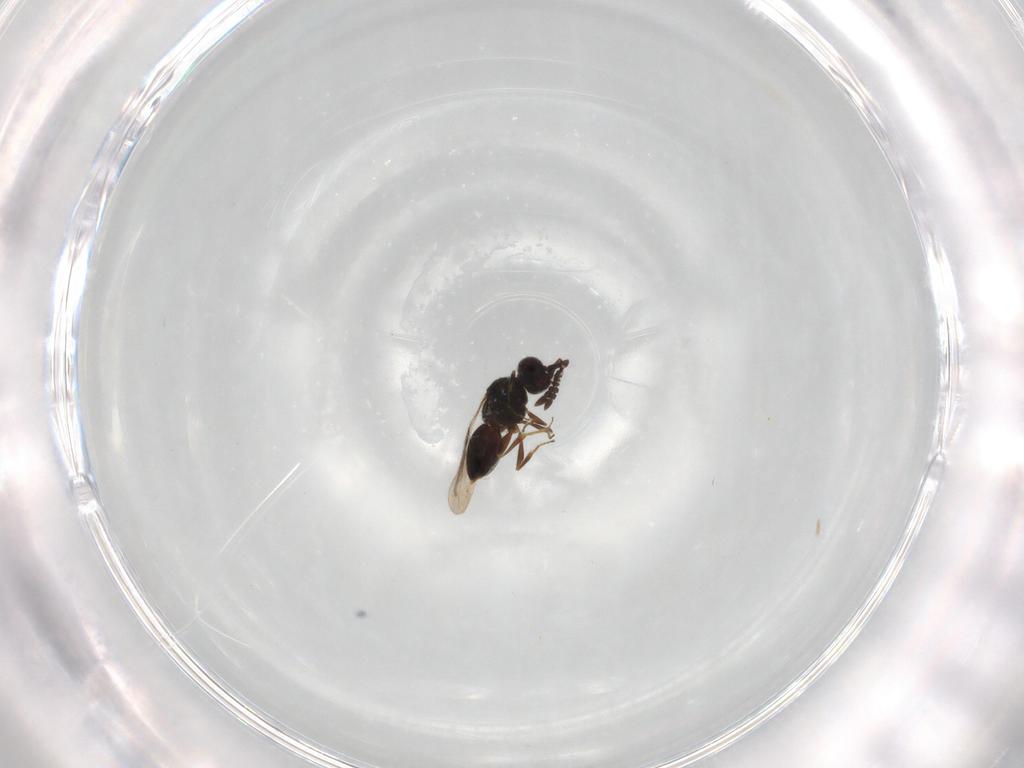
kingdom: Animalia
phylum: Arthropoda
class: Insecta
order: Hymenoptera
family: Ceraphronidae
